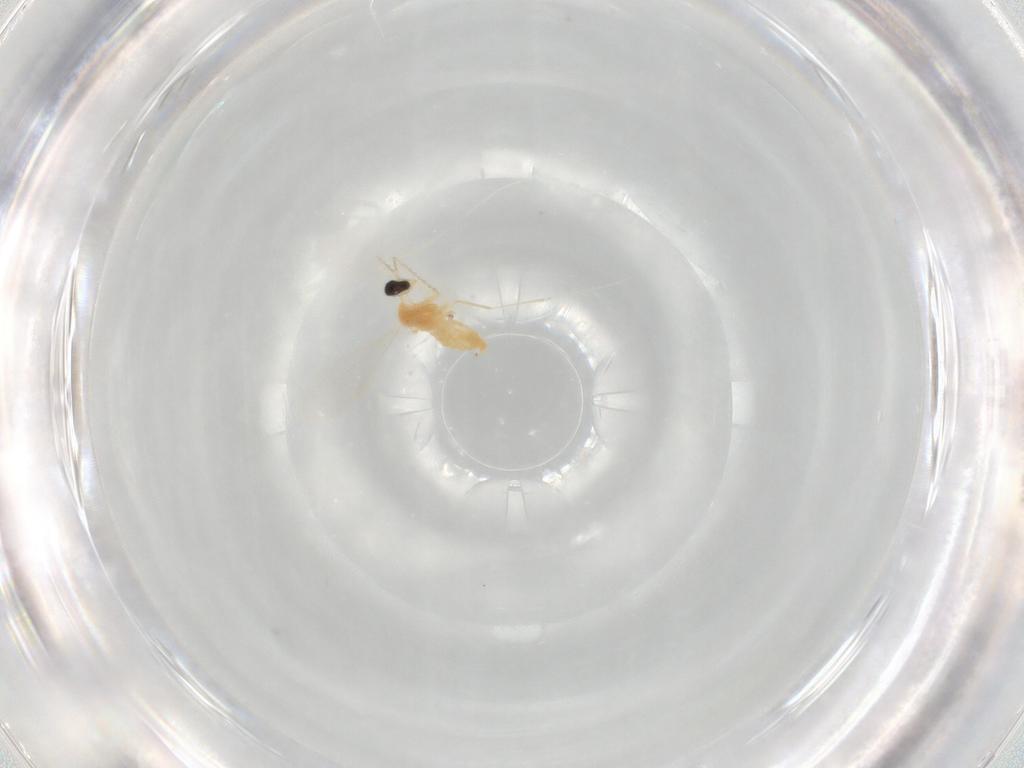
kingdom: Animalia
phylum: Arthropoda
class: Insecta
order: Diptera
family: Cecidomyiidae
